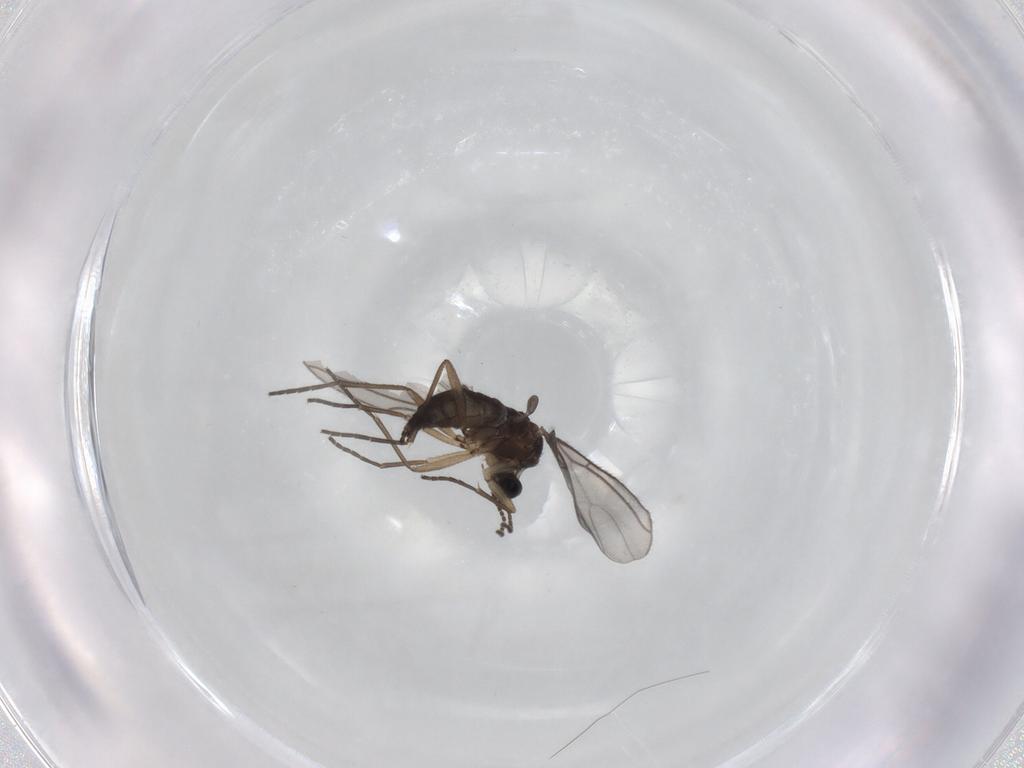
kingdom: Animalia
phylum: Arthropoda
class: Insecta
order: Diptera
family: Sciaridae
